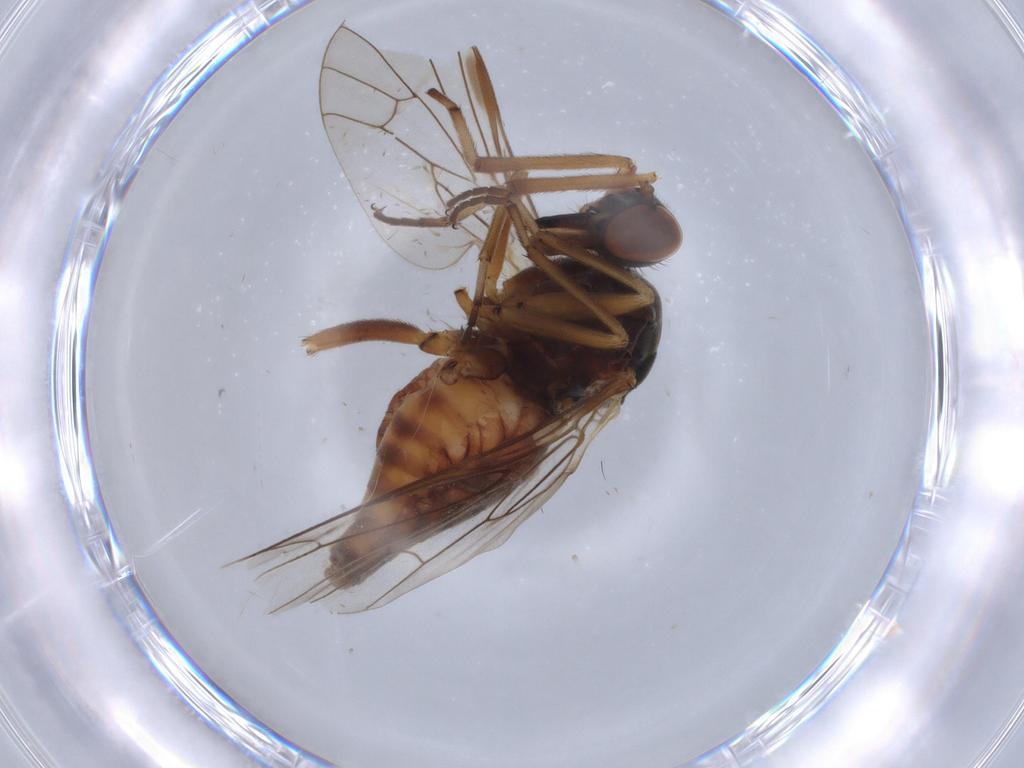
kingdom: Animalia
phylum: Arthropoda
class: Insecta
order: Diptera
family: Empididae
